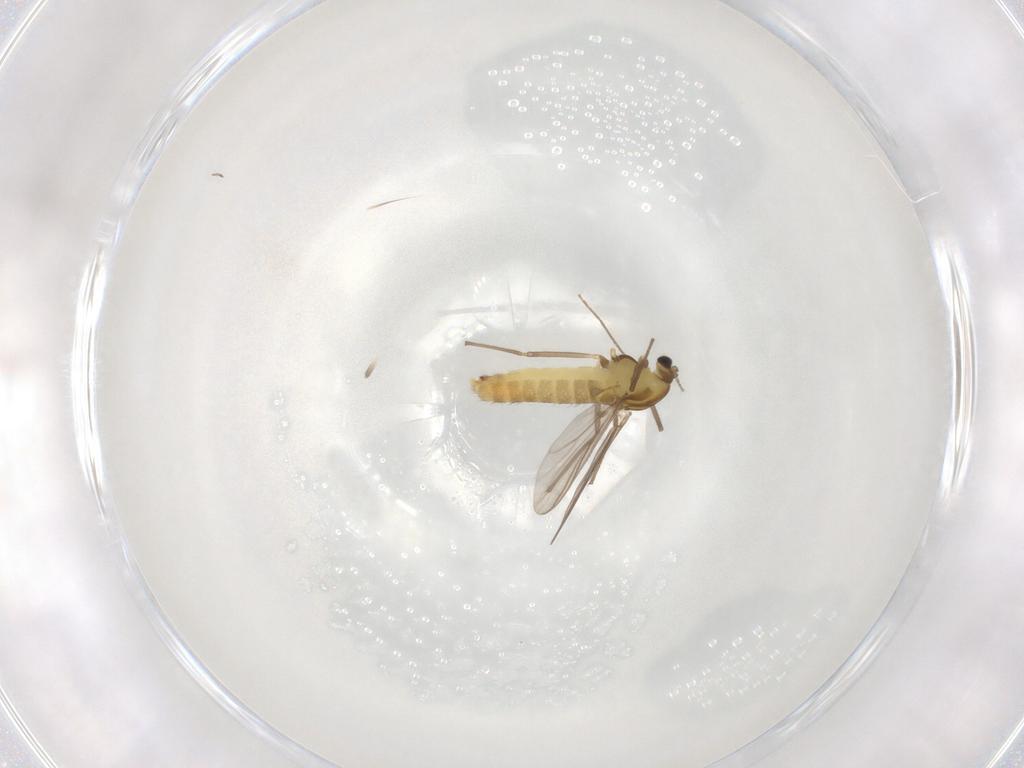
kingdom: Animalia
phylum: Arthropoda
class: Insecta
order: Diptera
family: Chironomidae
